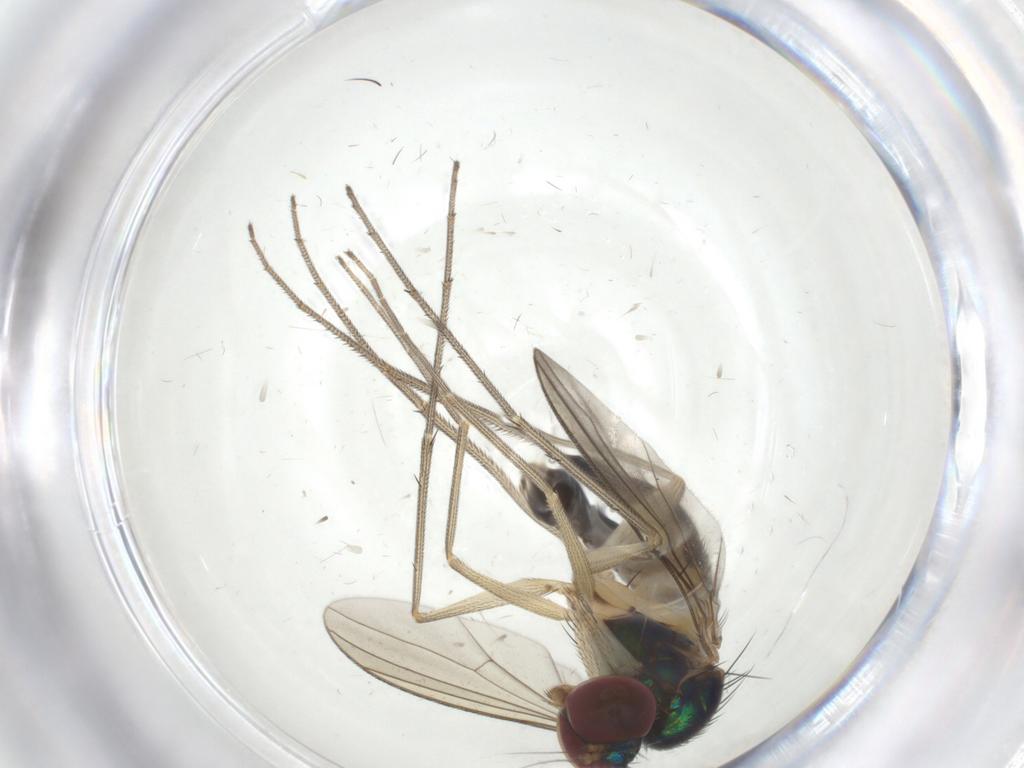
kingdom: Animalia
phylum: Arthropoda
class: Insecta
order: Diptera
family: Dolichopodidae
